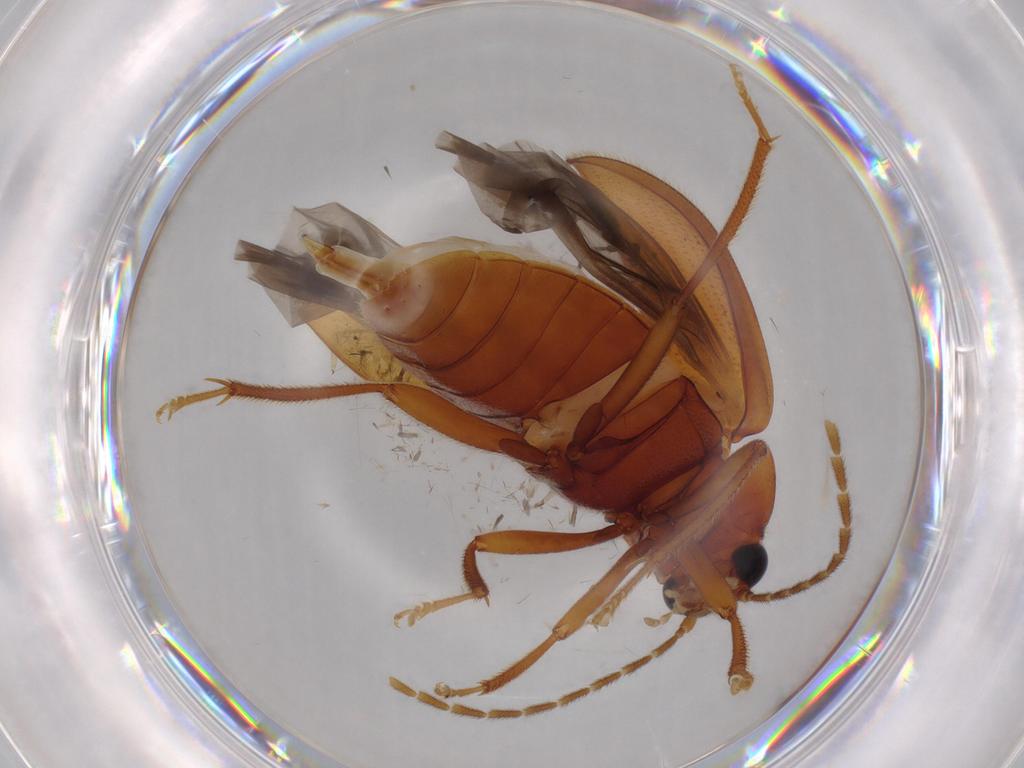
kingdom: Animalia
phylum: Arthropoda
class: Insecta
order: Coleoptera
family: Ptilodactylidae
